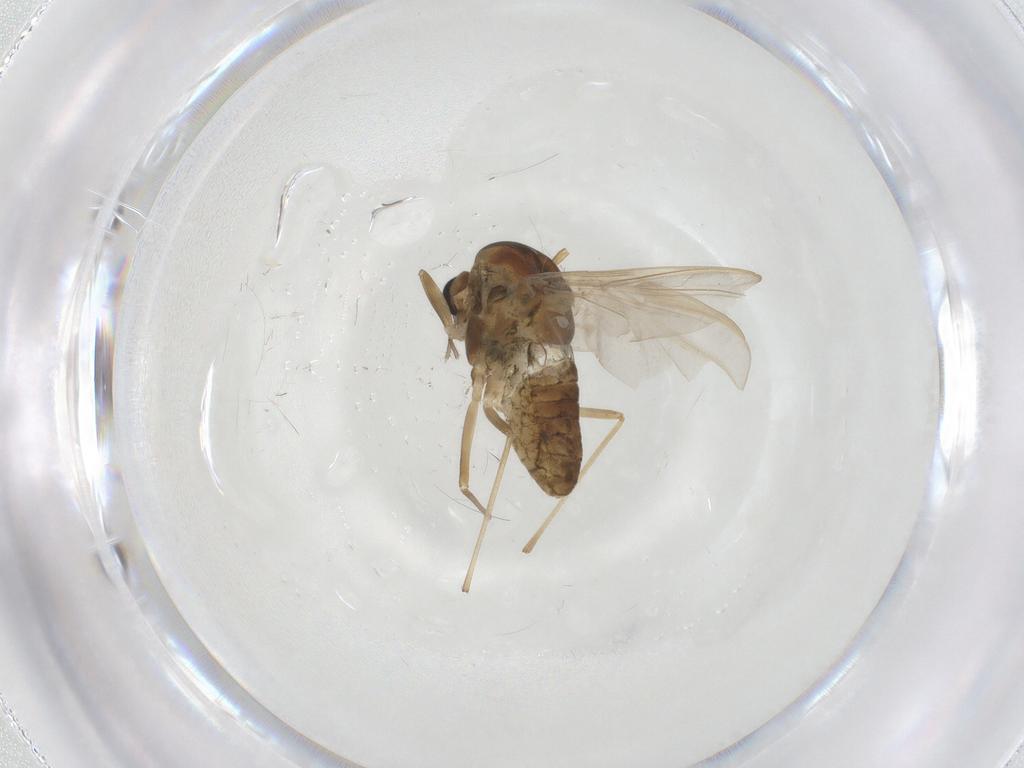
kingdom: Animalia
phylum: Arthropoda
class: Insecta
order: Diptera
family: Chironomidae
